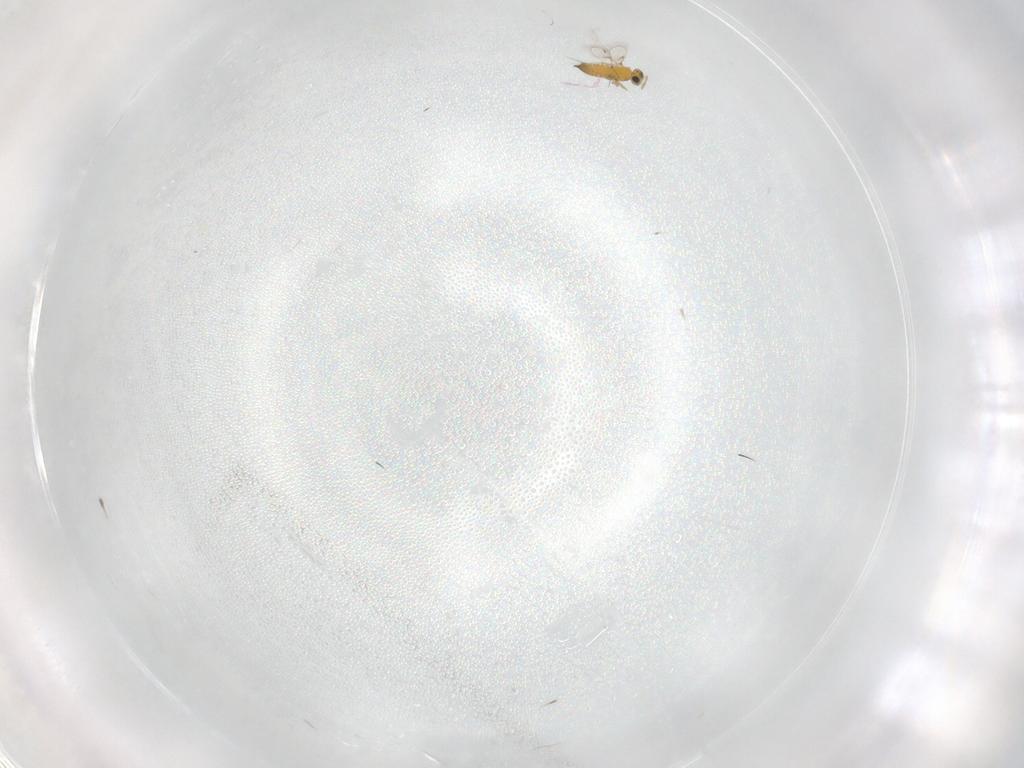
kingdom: Animalia
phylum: Arthropoda
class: Insecta
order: Diptera
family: Cecidomyiidae
